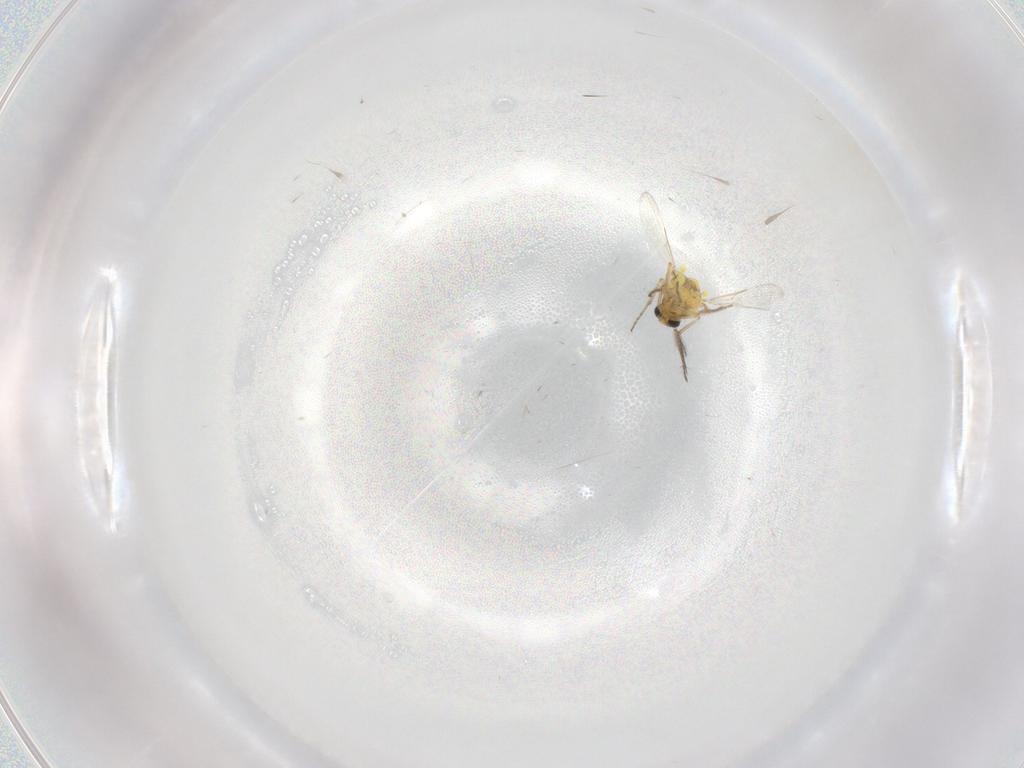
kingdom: Animalia
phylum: Arthropoda
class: Insecta
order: Diptera
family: Ceratopogonidae
